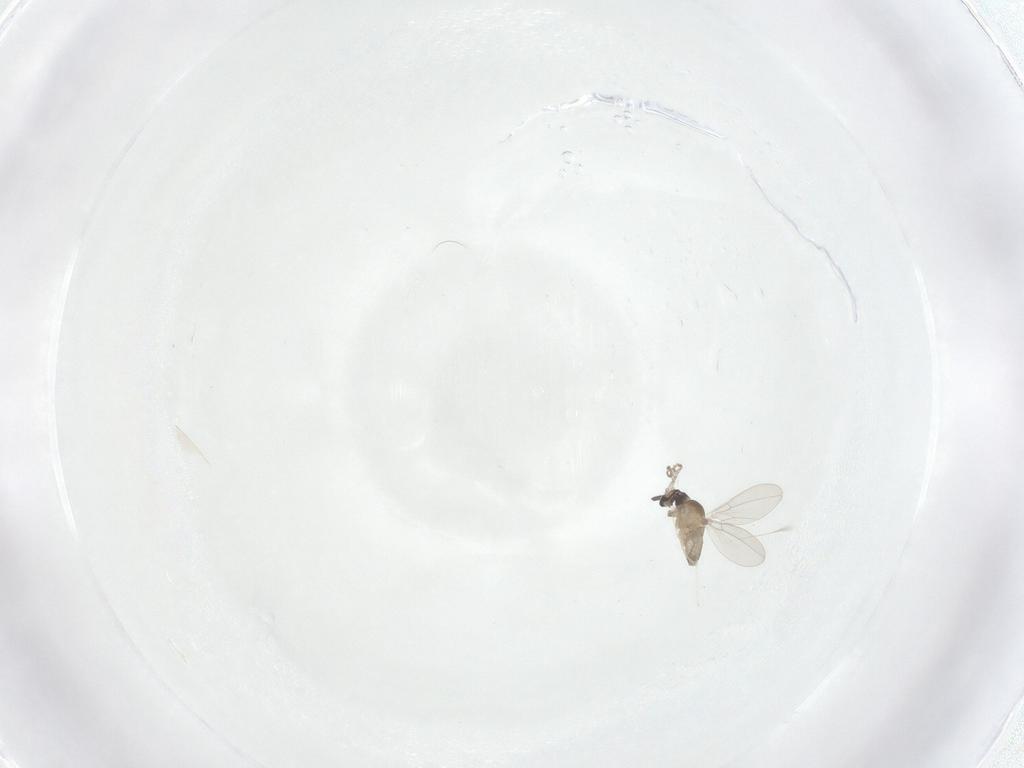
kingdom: Animalia
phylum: Arthropoda
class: Insecta
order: Diptera
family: Cecidomyiidae
